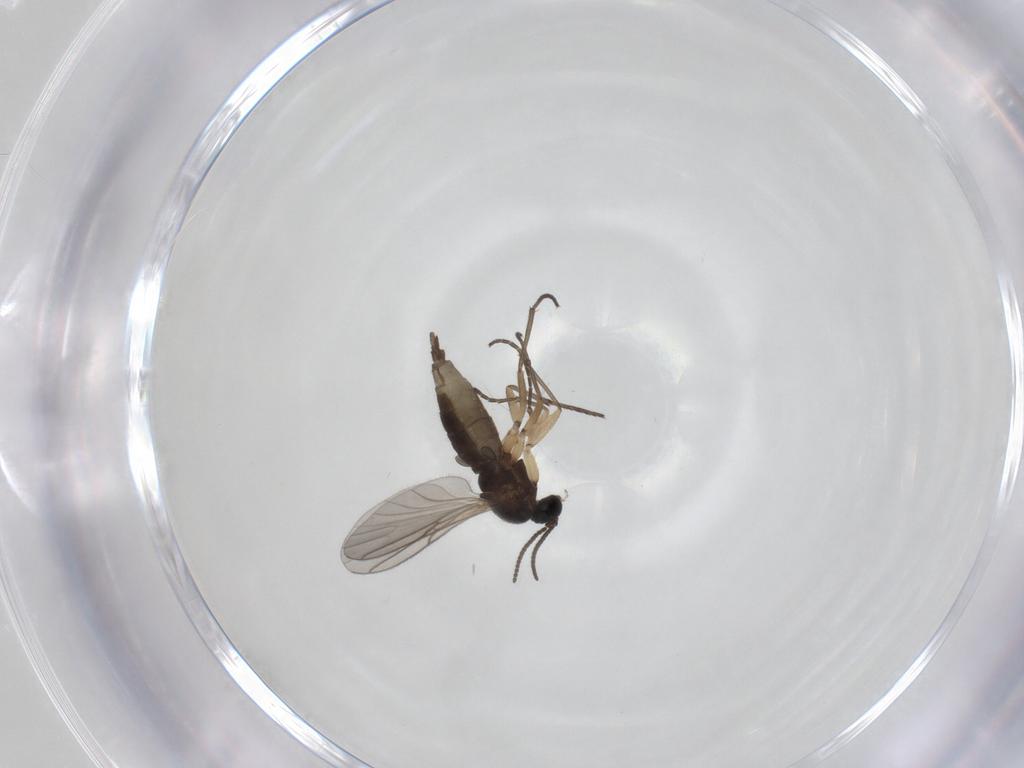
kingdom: Animalia
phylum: Arthropoda
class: Insecta
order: Diptera
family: Sciaridae
